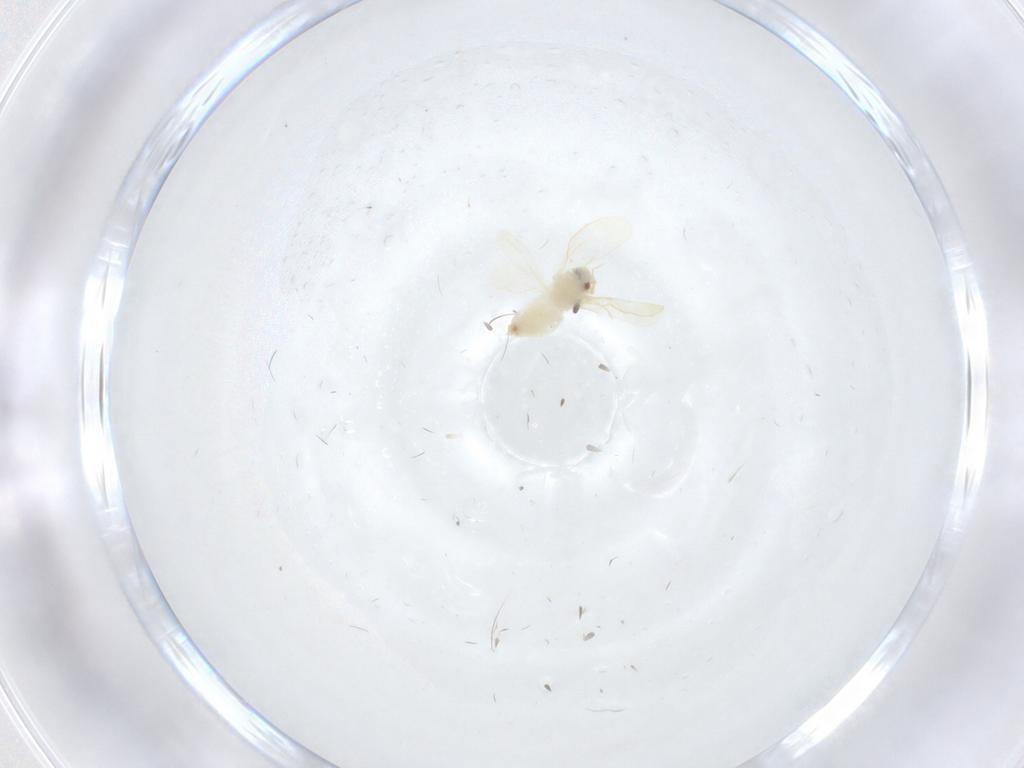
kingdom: Animalia
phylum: Arthropoda
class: Insecta
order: Hemiptera
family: Aleyrodidae
